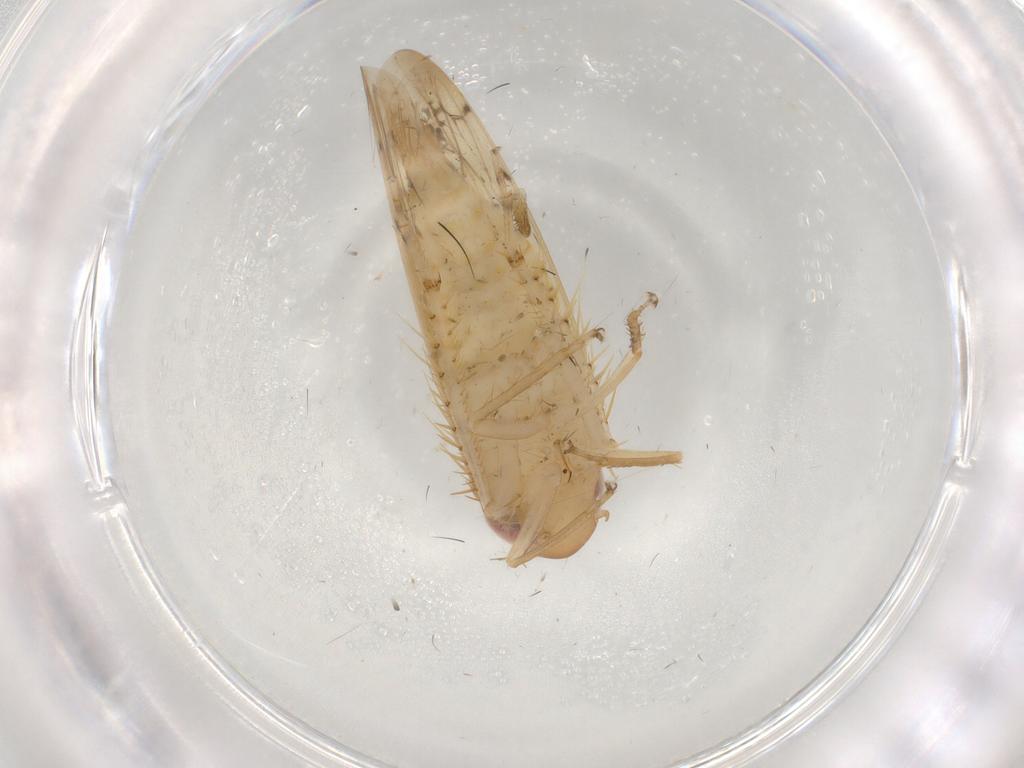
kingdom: Animalia
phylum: Arthropoda
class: Insecta
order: Hemiptera
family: Cicadellidae
